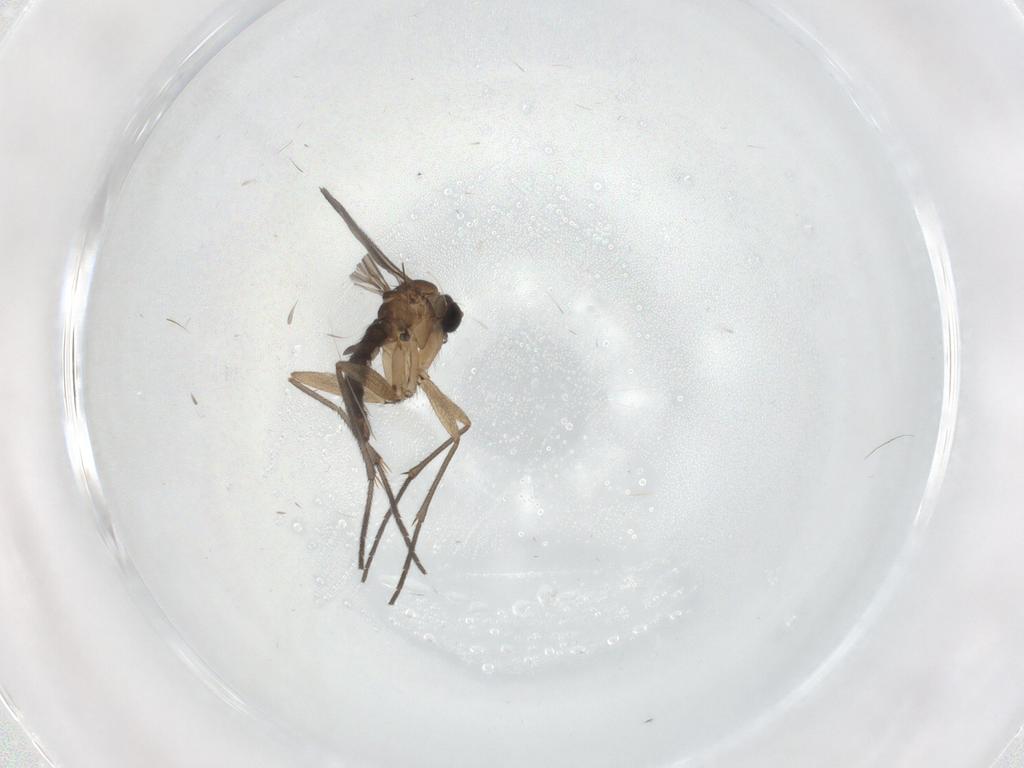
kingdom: Animalia
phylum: Arthropoda
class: Insecta
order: Diptera
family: Sciaridae
